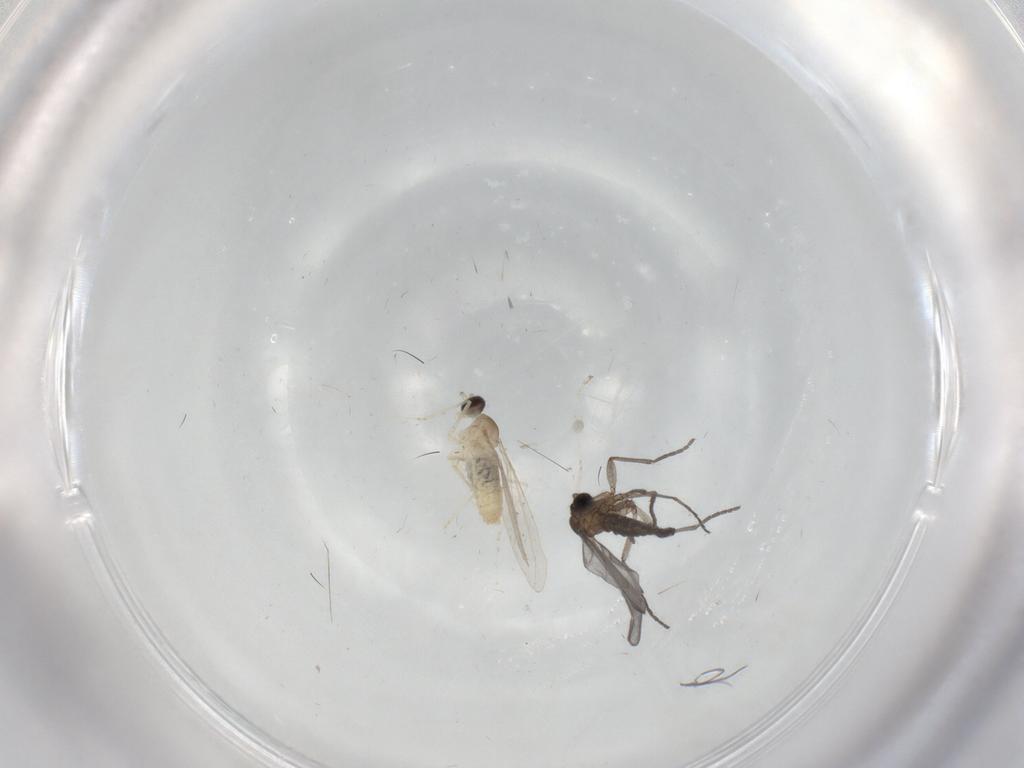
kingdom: Animalia
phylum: Arthropoda
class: Insecta
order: Diptera
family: Sciaridae
